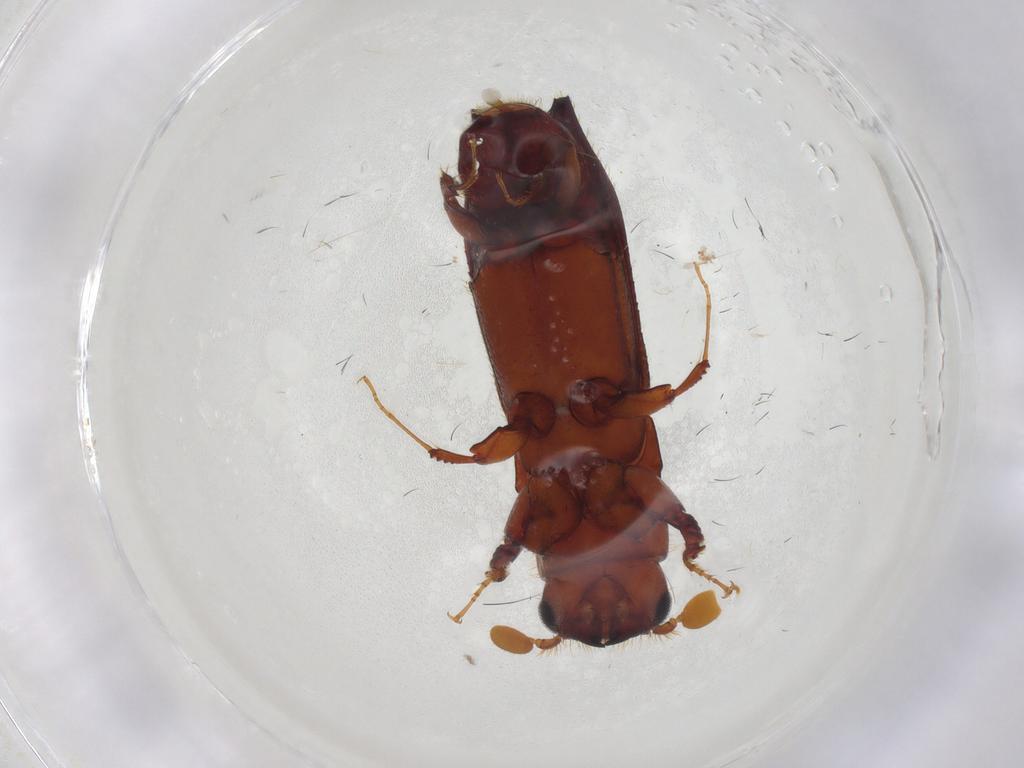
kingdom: Animalia
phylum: Arthropoda
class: Insecta
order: Coleoptera
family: Curculionidae
